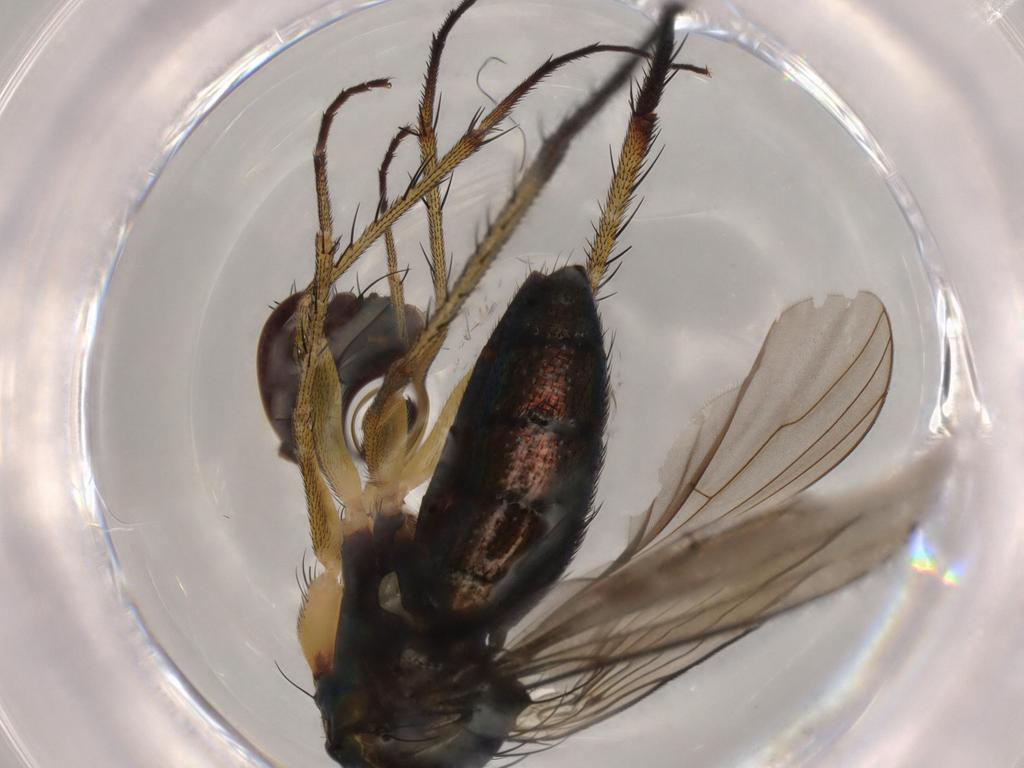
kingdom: Animalia
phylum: Arthropoda
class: Insecta
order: Diptera
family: Dolichopodidae
